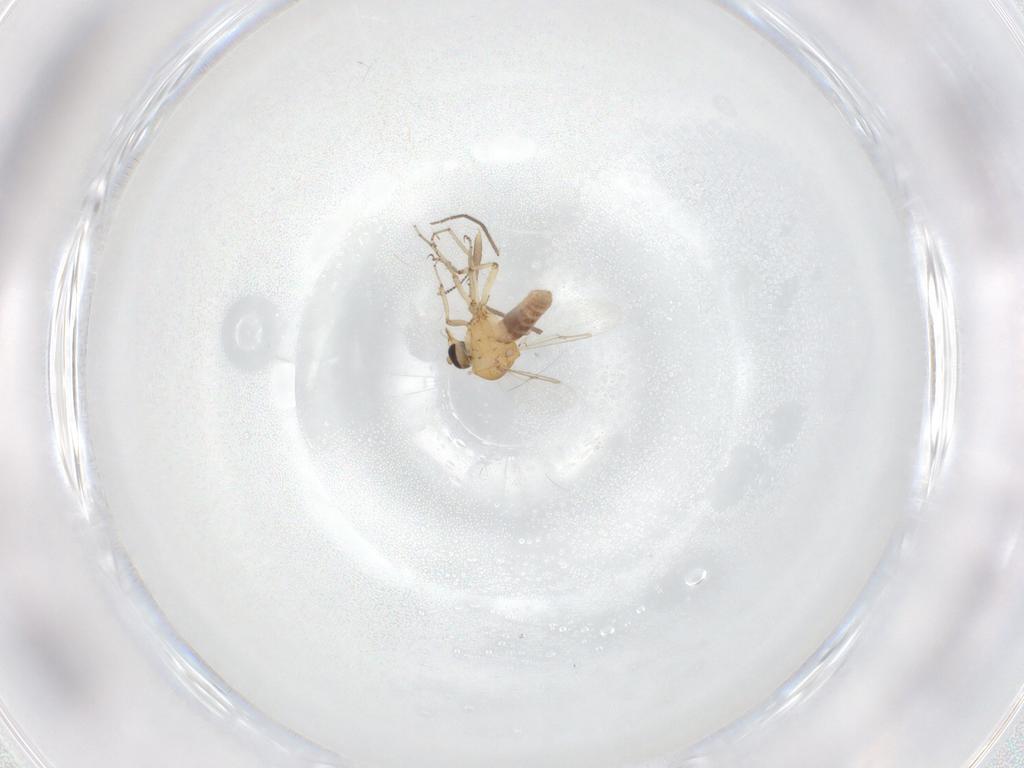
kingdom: Animalia
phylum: Arthropoda
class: Insecta
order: Diptera
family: Chironomidae
